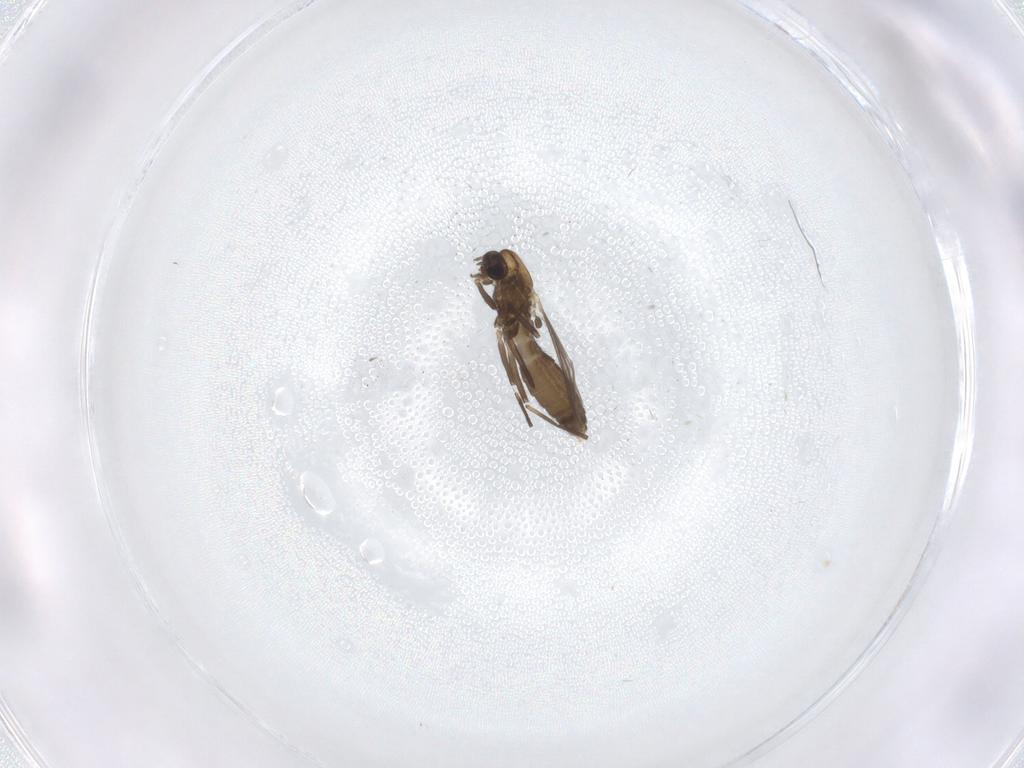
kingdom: Animalia
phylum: Arthropoda
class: Insecta
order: Diptera
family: Chironomidae
